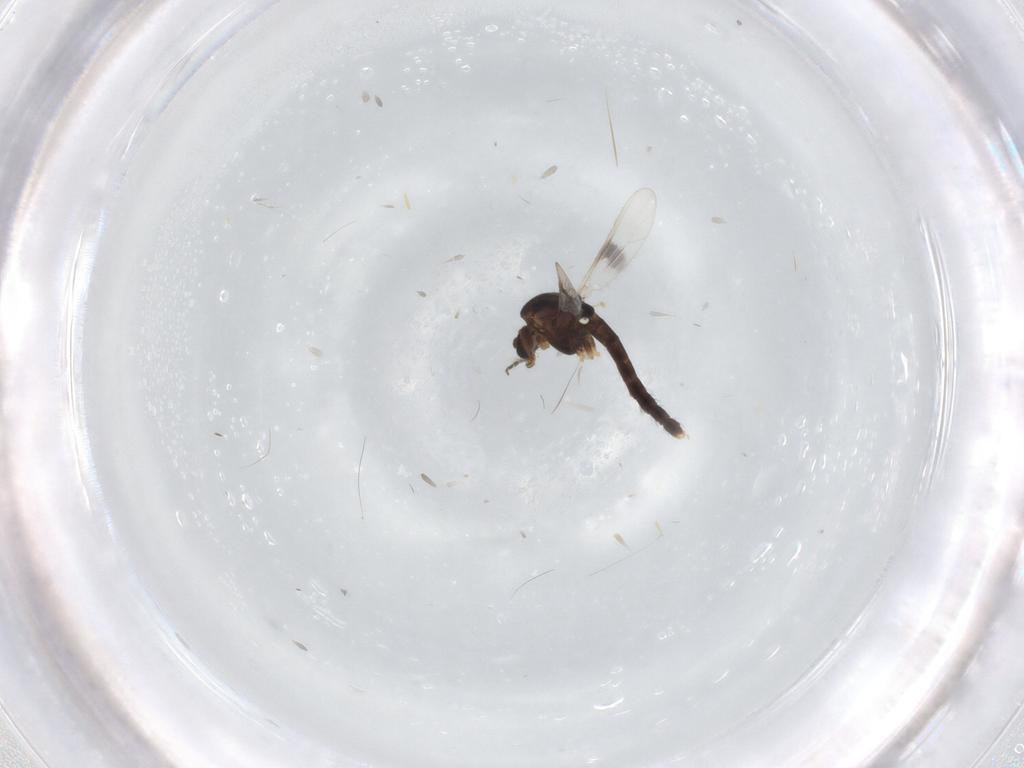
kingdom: Animalia
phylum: Arthropoda
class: Insecta
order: Diptera
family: Chironomidae
